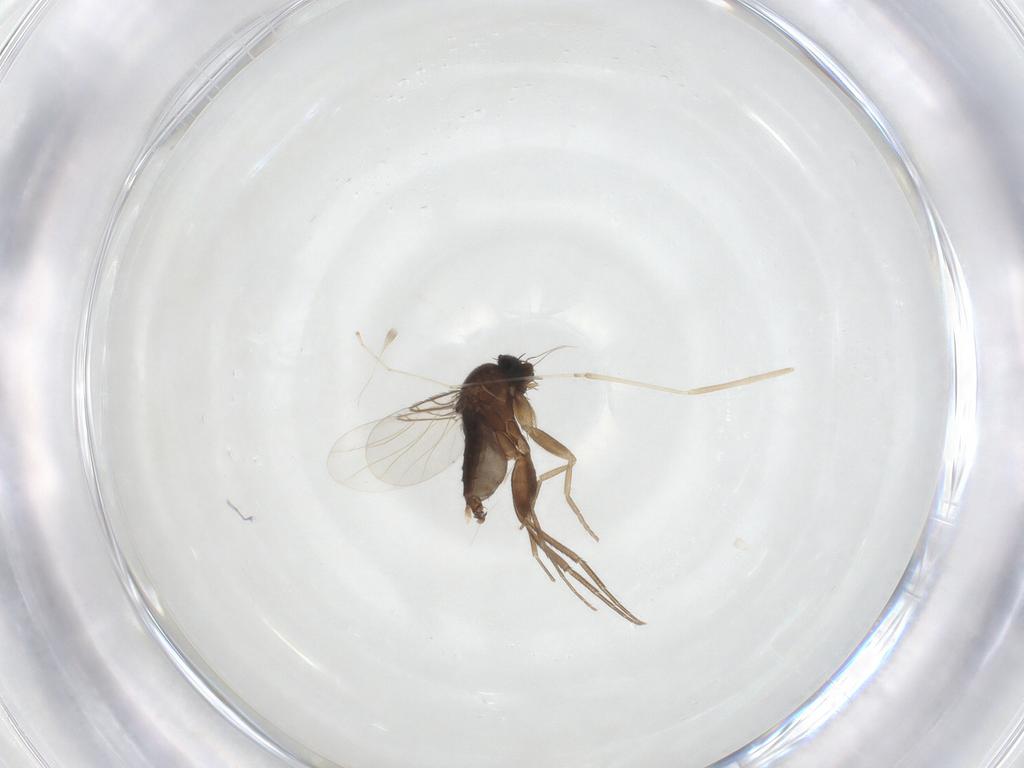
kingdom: Animalia
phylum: Arthropoda
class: Insecta
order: Diptera
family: Phoridae
